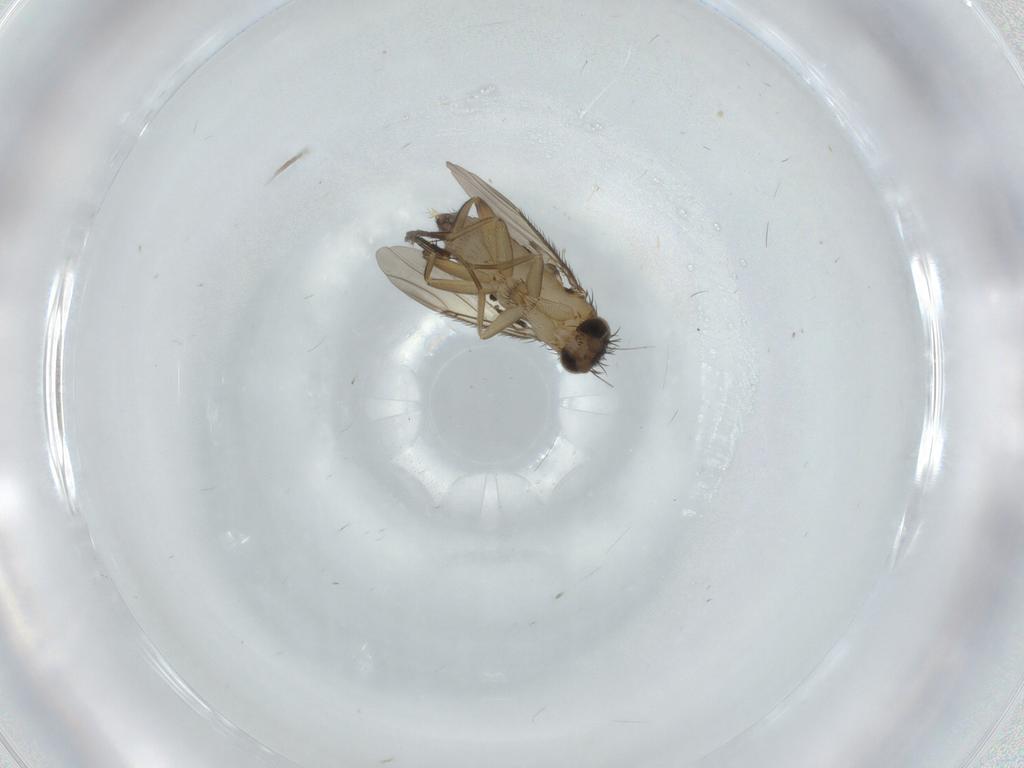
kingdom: Animalia
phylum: Arthropoda
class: Insecta
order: Diptera
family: Phoridae
